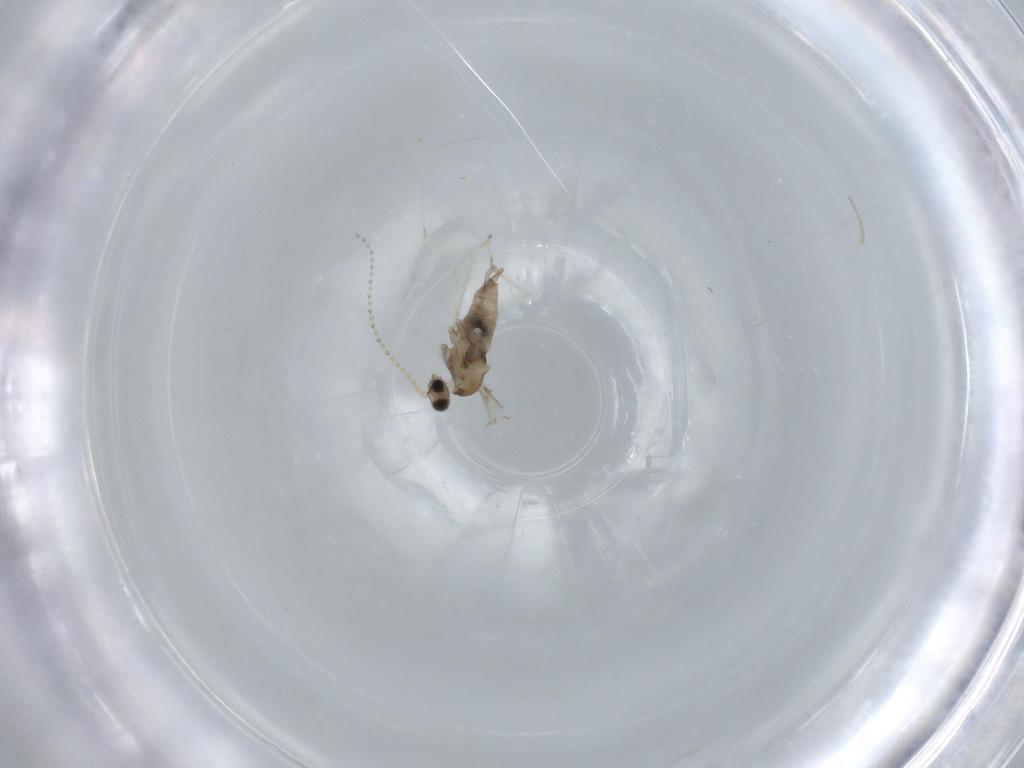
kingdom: Animalia
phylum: Arthropoda
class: Insecta
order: Diptera
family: Cecidomyiidae
